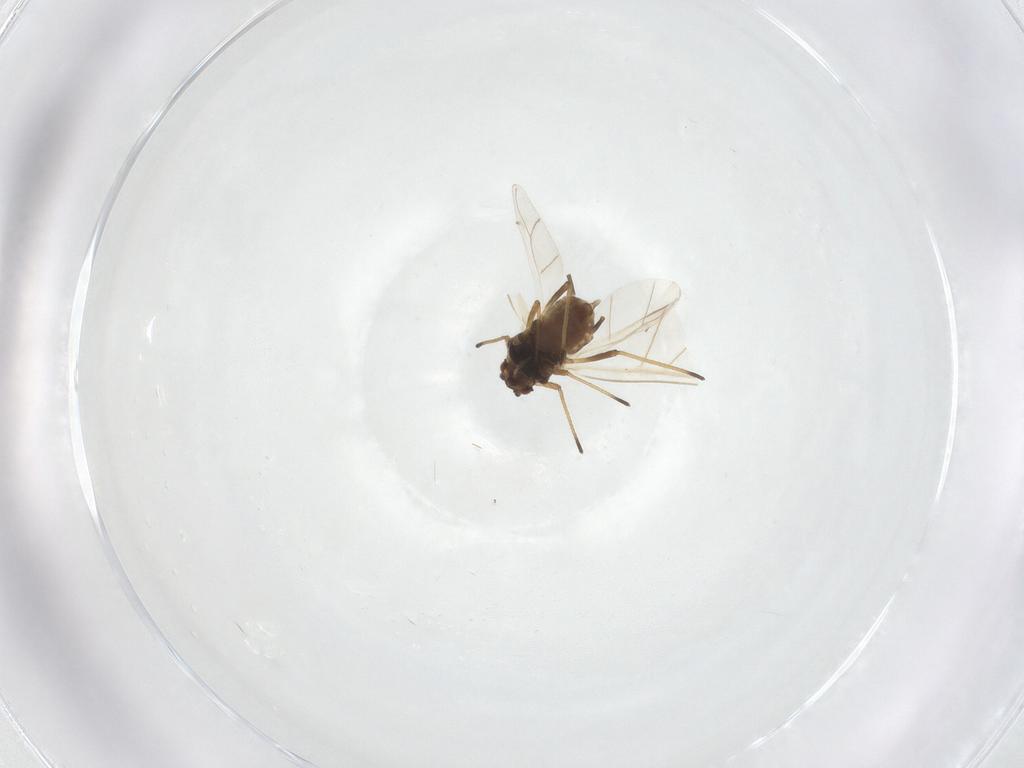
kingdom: Animalia
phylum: Arthropoda
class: Insecta
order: Hemiptera
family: Aphididae
